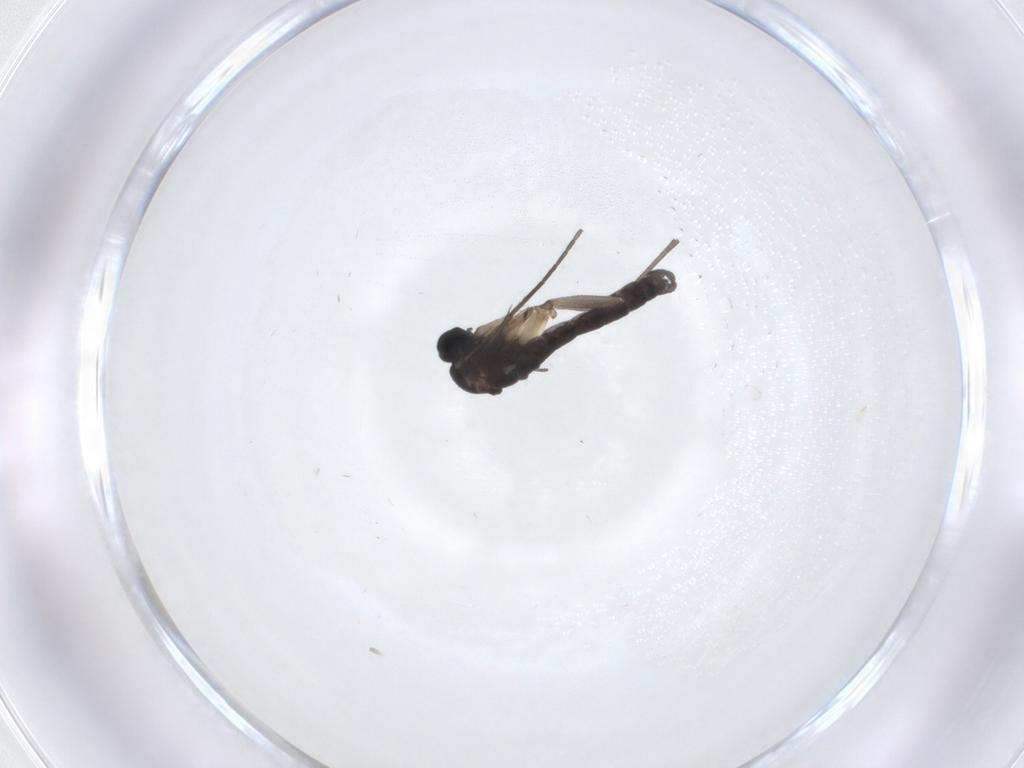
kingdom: Animalia
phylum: Arthropoda
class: Insecta
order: Diptera
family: Sciaridae
